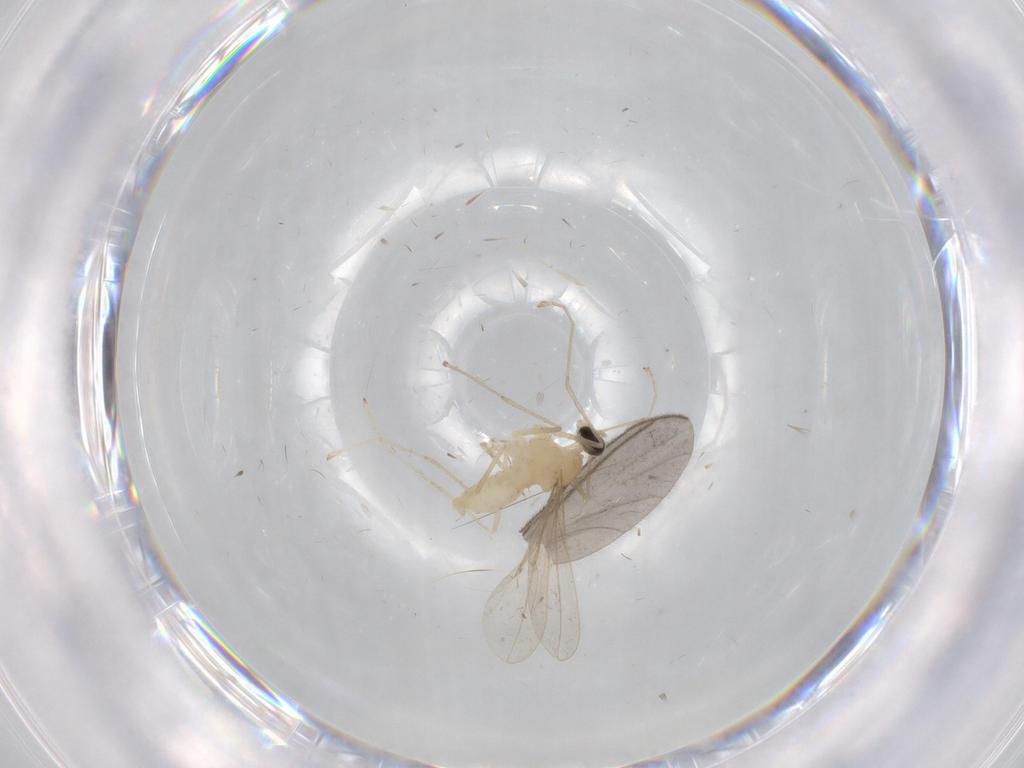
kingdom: Animalia
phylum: Arthropoda
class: Insecta
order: Diptera
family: Cecidomyiidae
